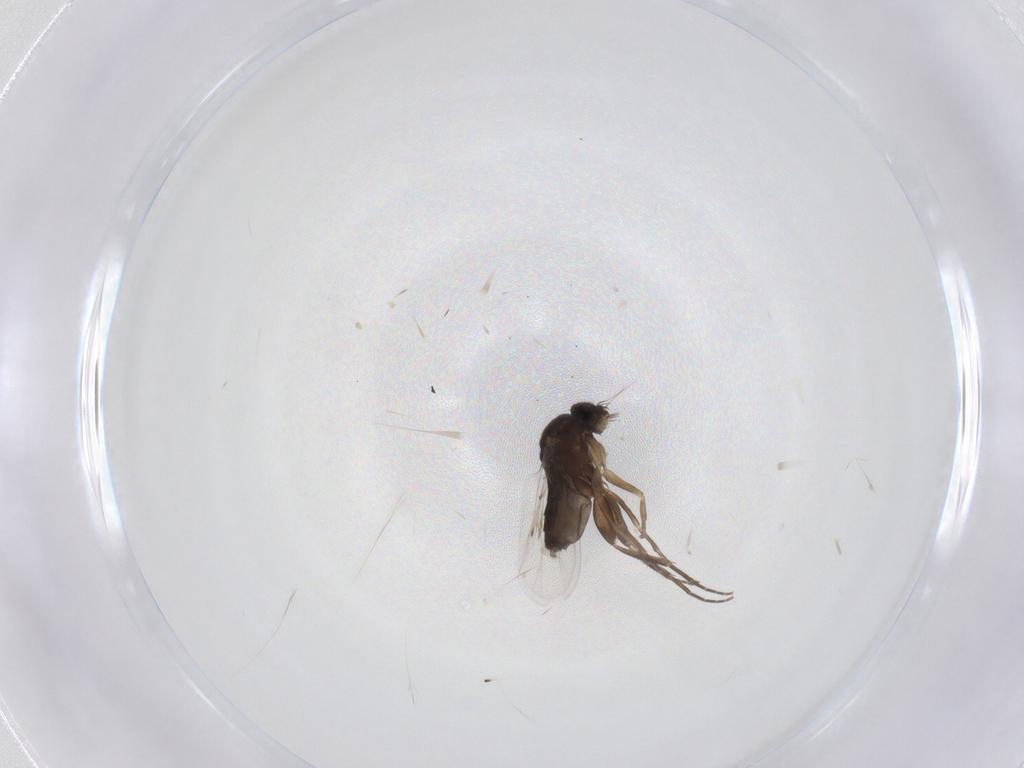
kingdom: Animalia
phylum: Arthropoda
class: Insecta
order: Diptera
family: Phoridae
